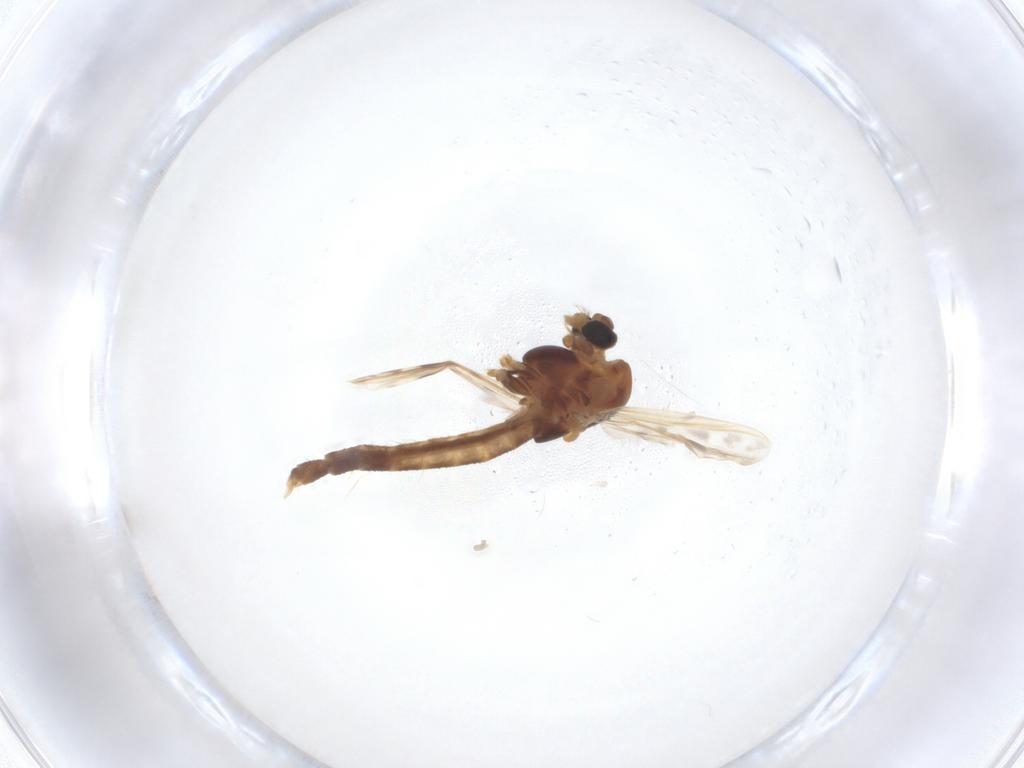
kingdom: Animalia
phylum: Arthropoda
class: Insecta
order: Diptera
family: Chironomidae
